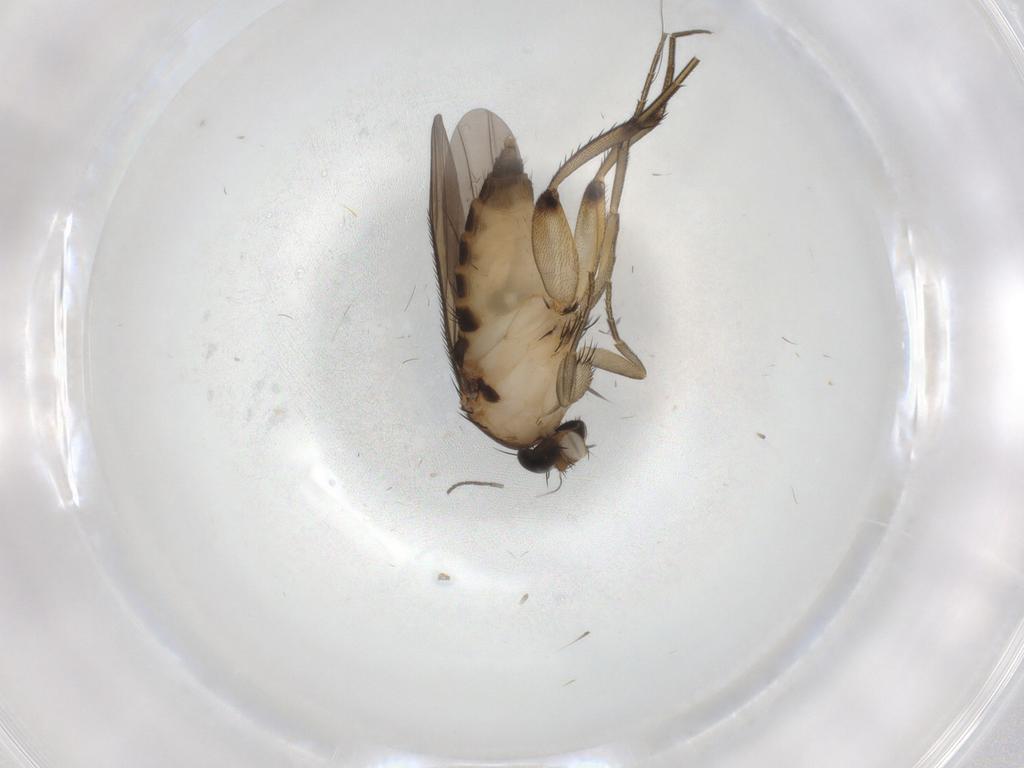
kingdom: Animalia
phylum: Arthropoda
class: Insecta
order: Diptera
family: Phoridae
